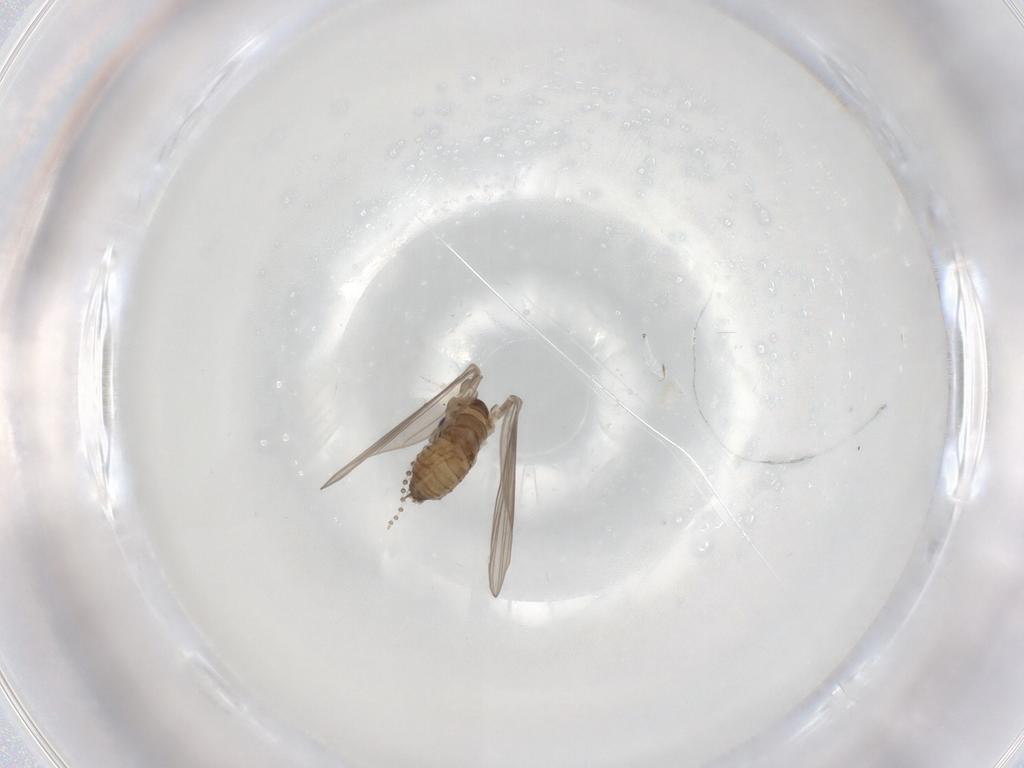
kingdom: Animalia
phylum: Arthropoda
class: Insecta
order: Diptera
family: Psychodidae
